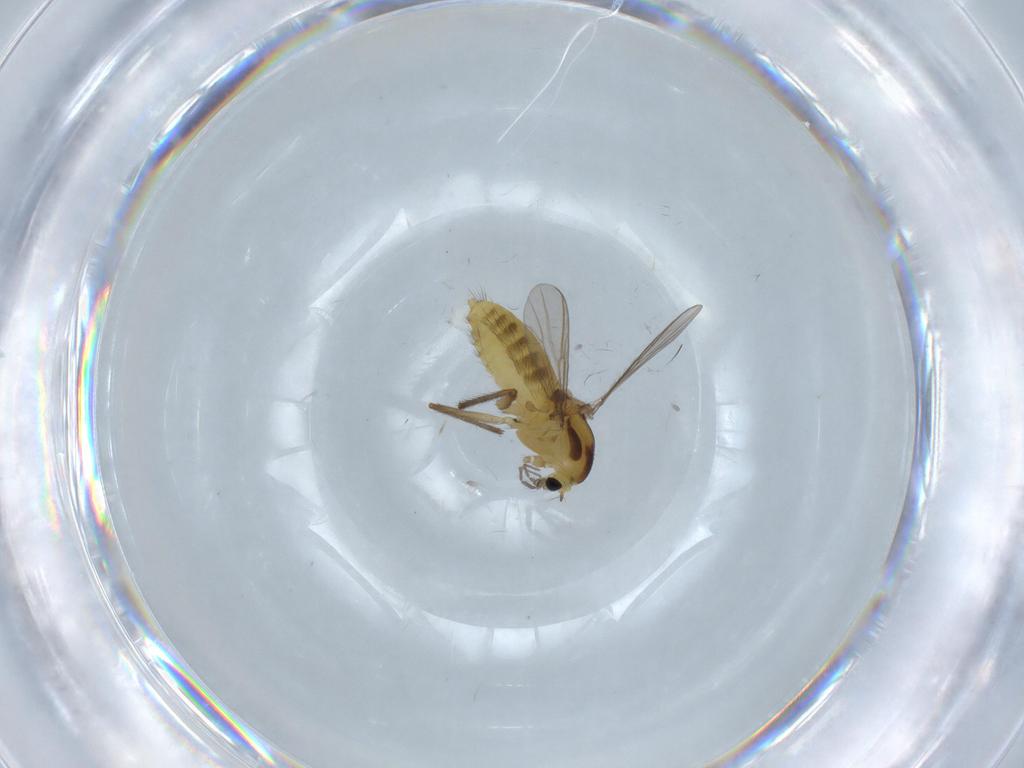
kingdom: Animalia
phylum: Arthropoda
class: Insecta
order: Diptera
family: Chironomidae
